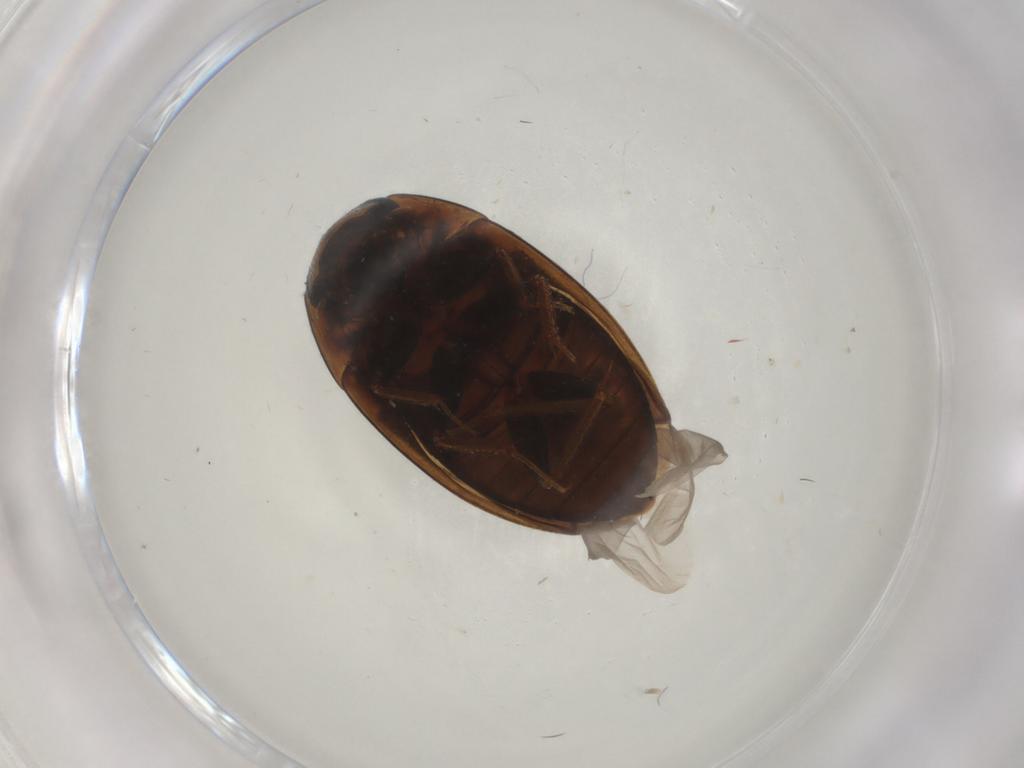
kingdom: Animalia
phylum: Arthropoda
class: Insecta
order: Coleoptera
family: Hydrophilidae
